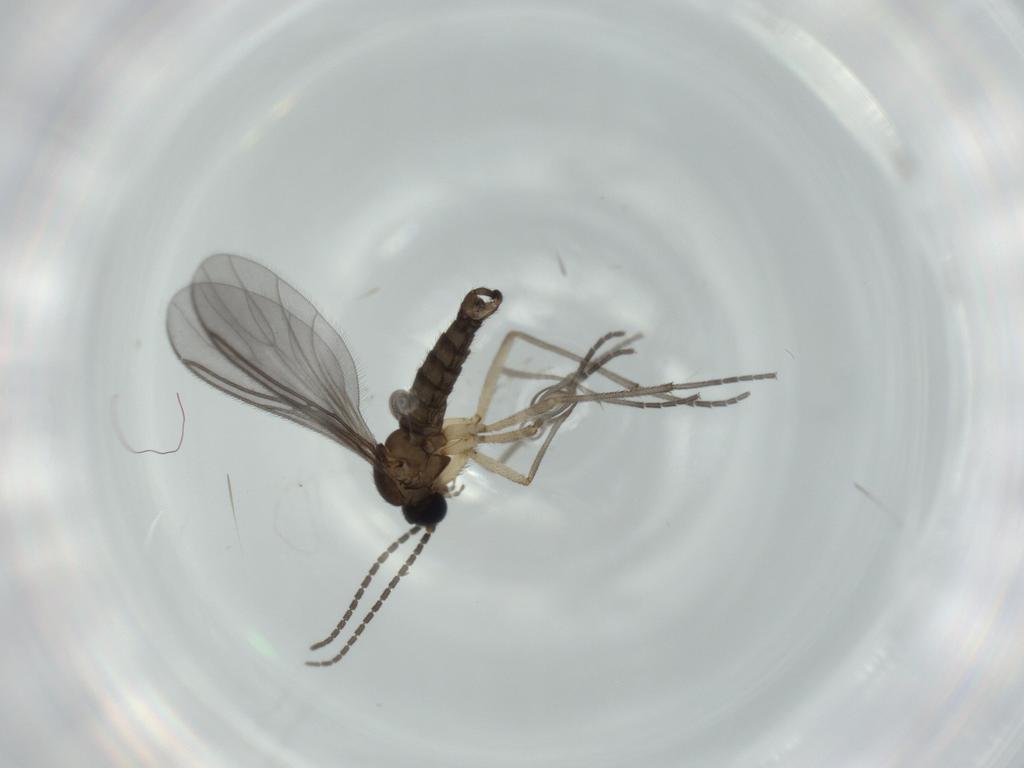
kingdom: Animalia
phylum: Arthropoda
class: Insecta
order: Diptera
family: Sciaridae
